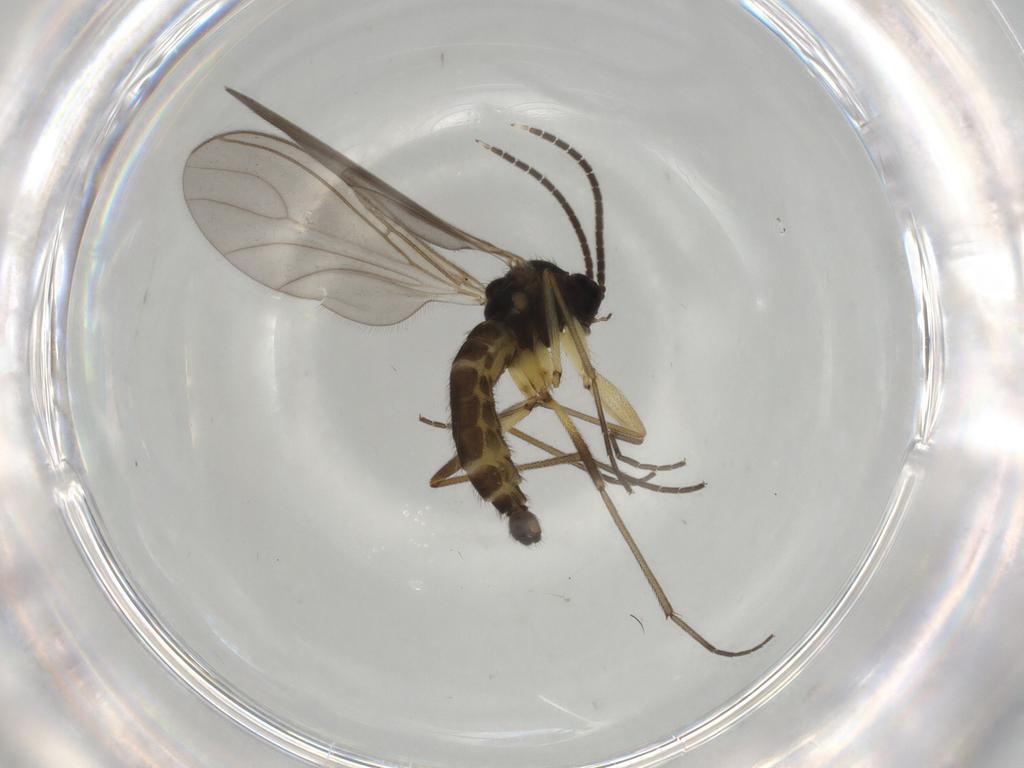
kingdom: Animalia
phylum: Arthropoda
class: Insecta
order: Diptera
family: Sciaridae
